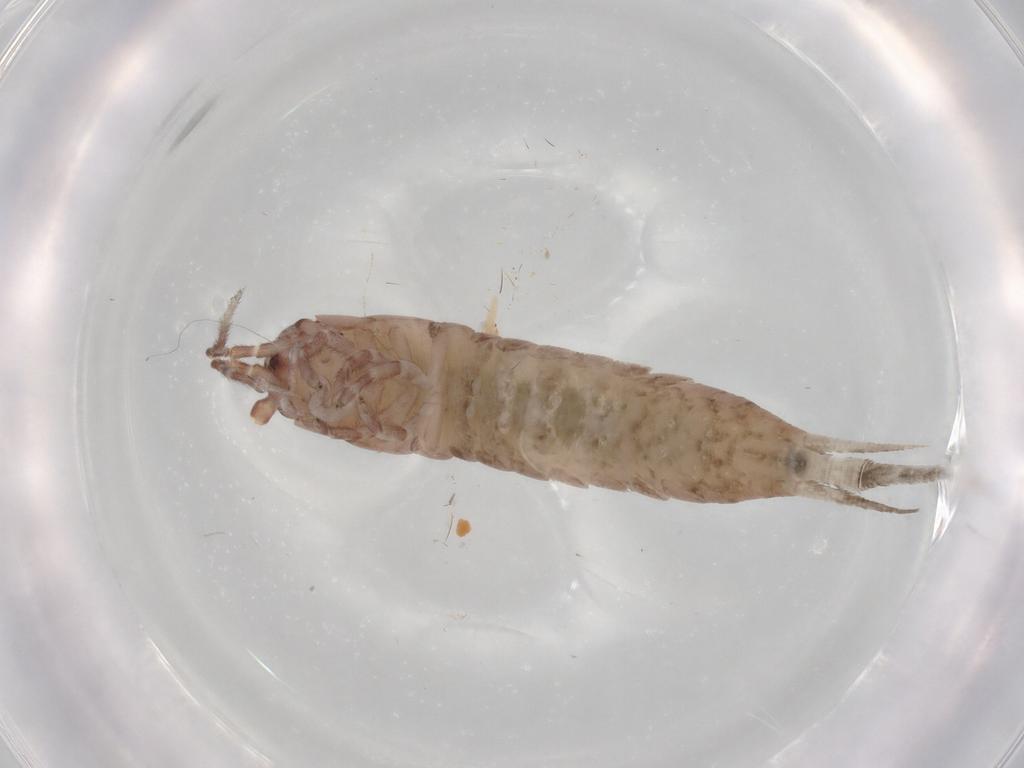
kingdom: Animalia
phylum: Arthropoda
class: Insecta
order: Archaeognatha
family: Machilidae
